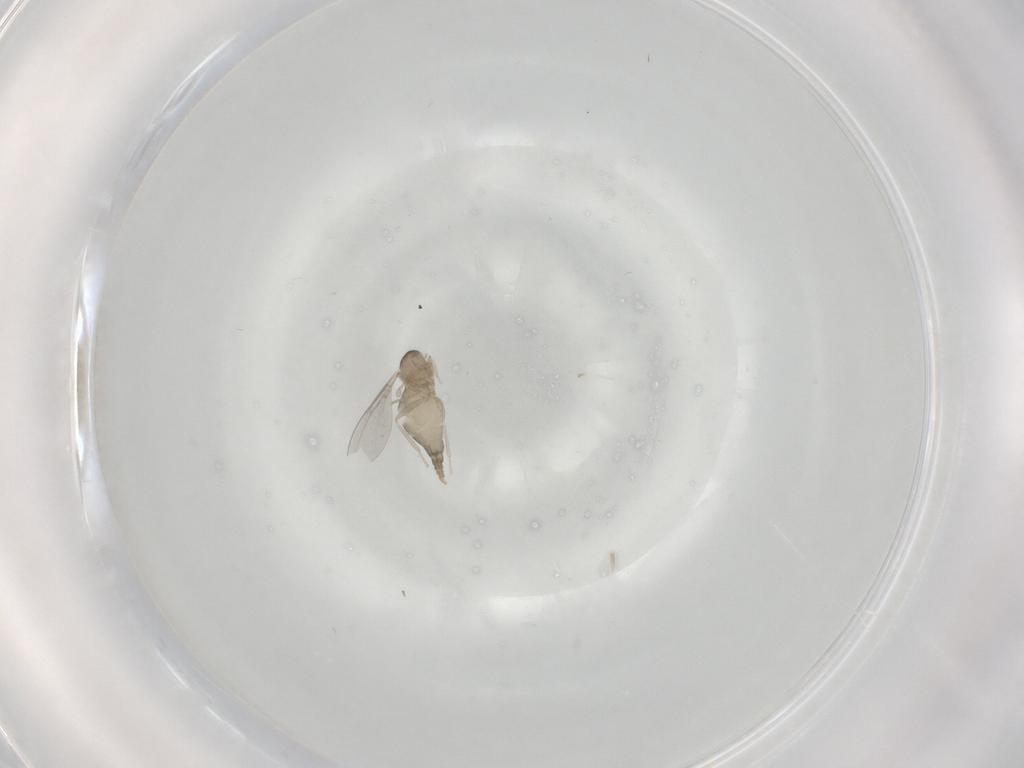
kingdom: Animalia
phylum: Arthropoda
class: Insecta
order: Diptera
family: Cecidomyiidae
